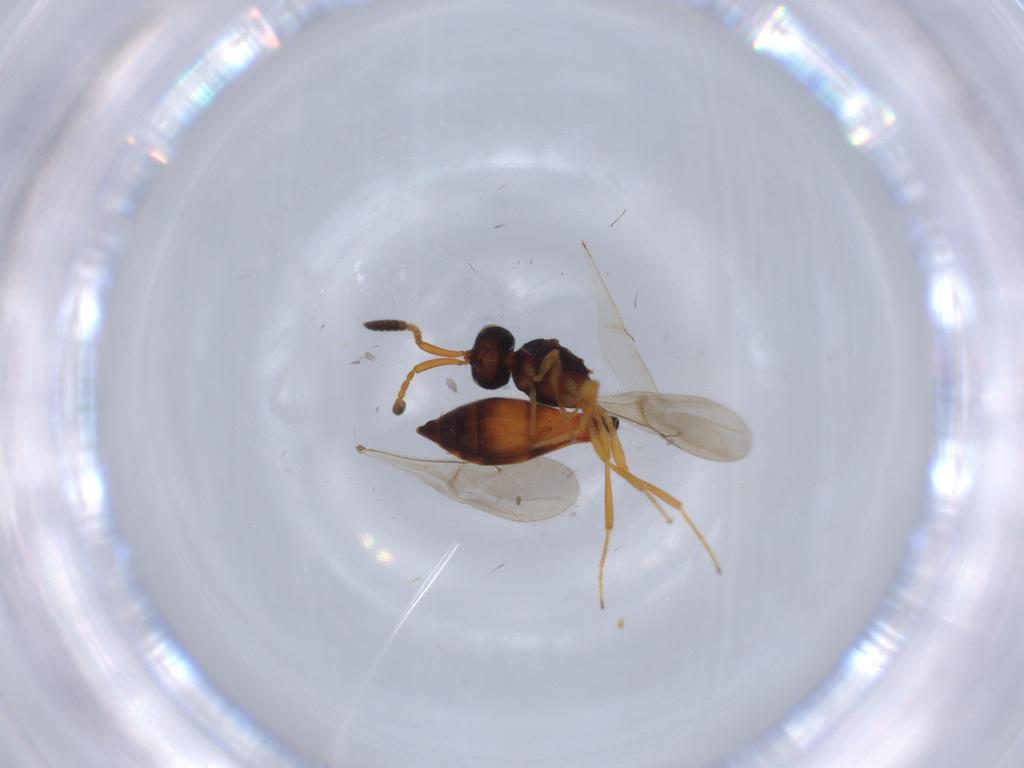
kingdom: Animalia
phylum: Arthropoda
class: Insecta
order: Hymenoptera
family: Scelionidae
